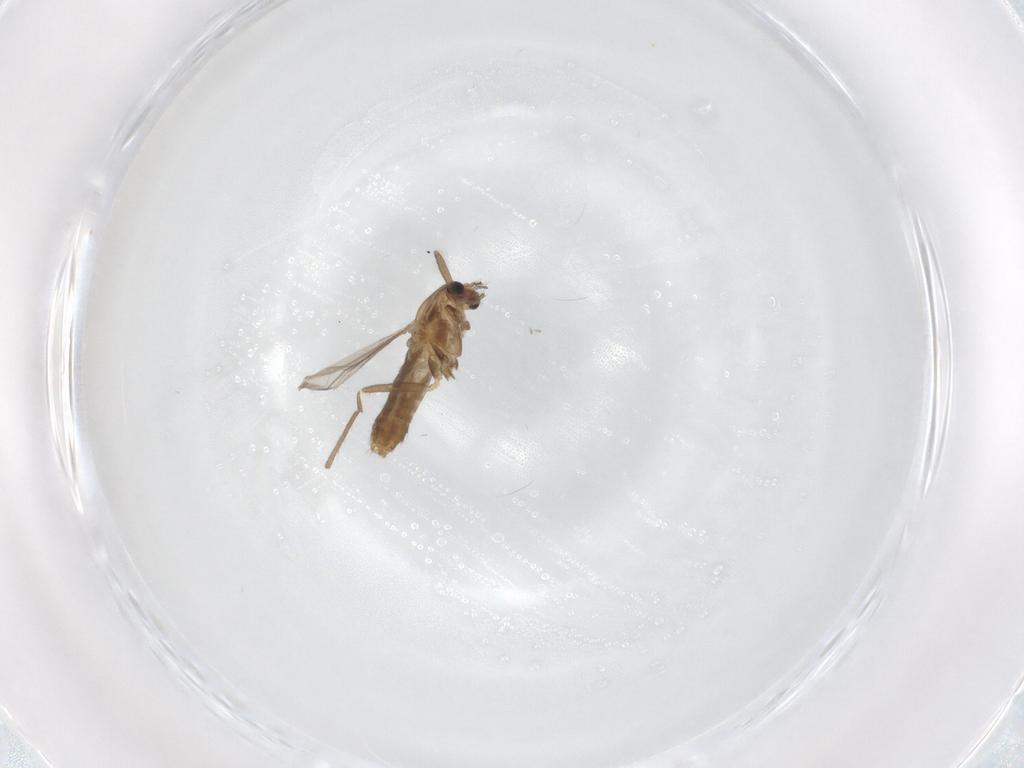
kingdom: Animalia
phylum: Arthropoda
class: Insecta
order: Diptera
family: Chironomidae
